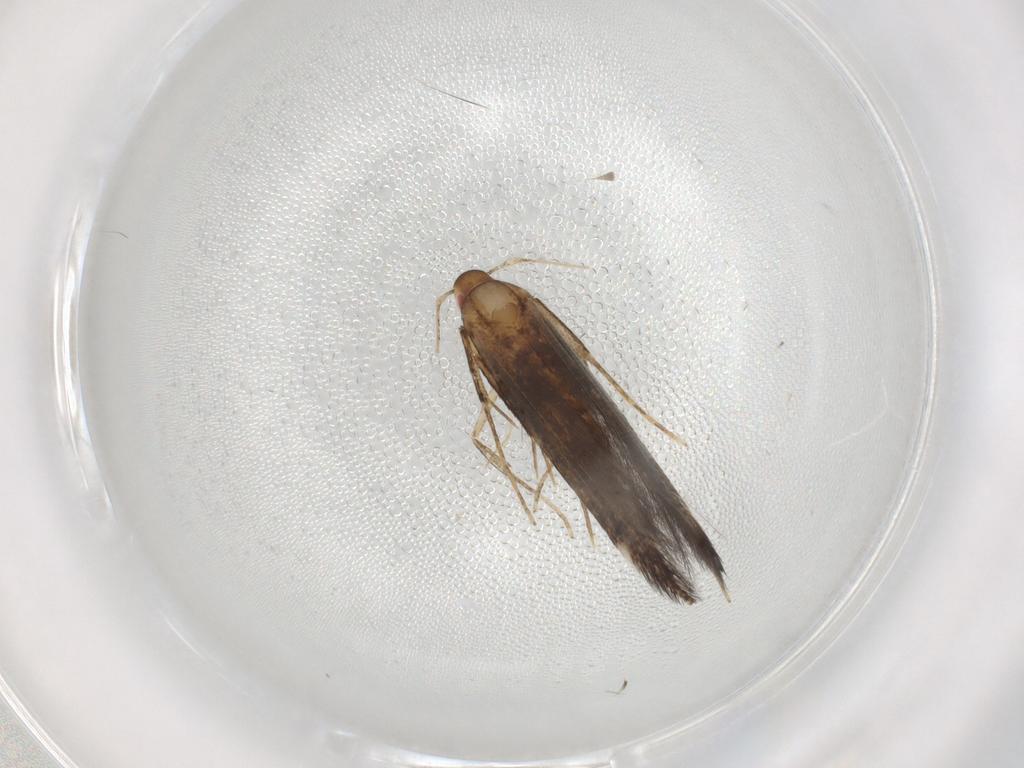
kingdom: Animalia
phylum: Arthropoda
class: Insecta
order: Lepidoptera
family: Cosmopterigidae
